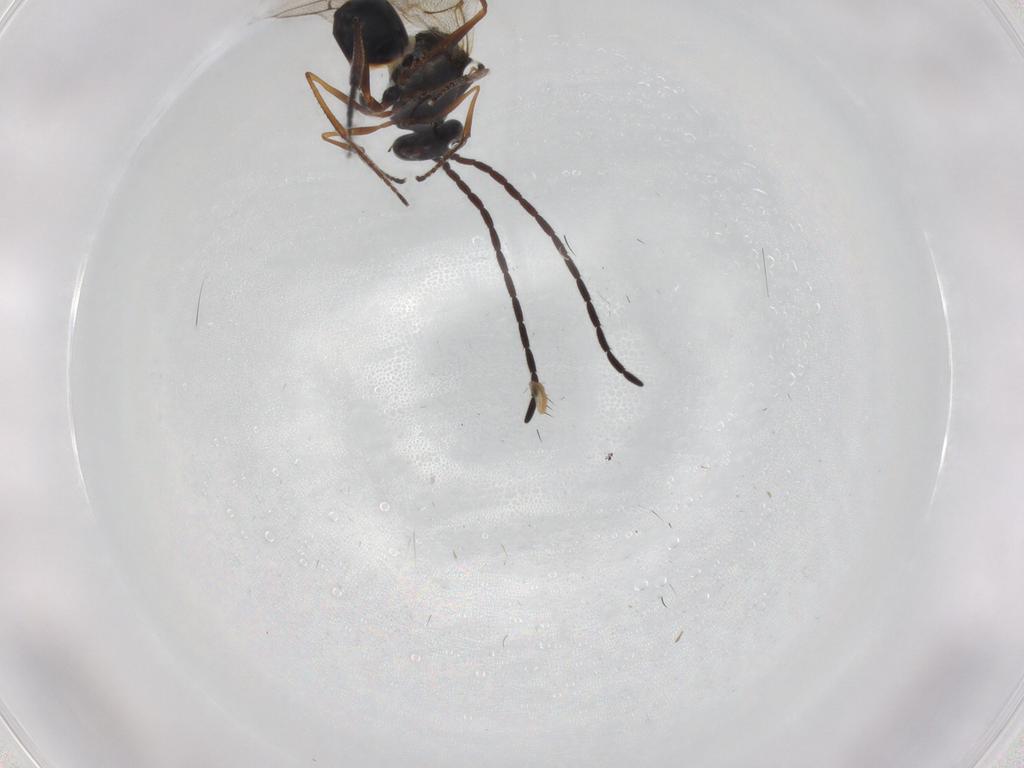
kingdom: Animalia
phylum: Arthropoda
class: Insecta
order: Hymenoptera
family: Figitidae
